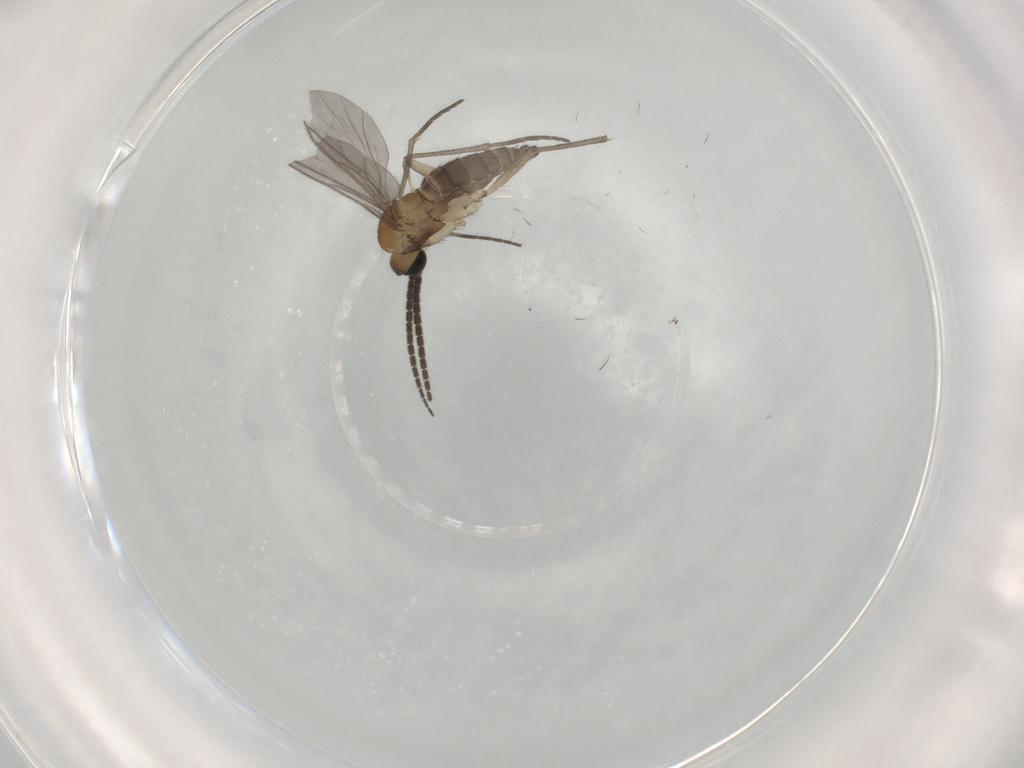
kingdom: Animalia
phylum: Arthropoda
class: Insecta
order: Diptera
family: Sciaridae
